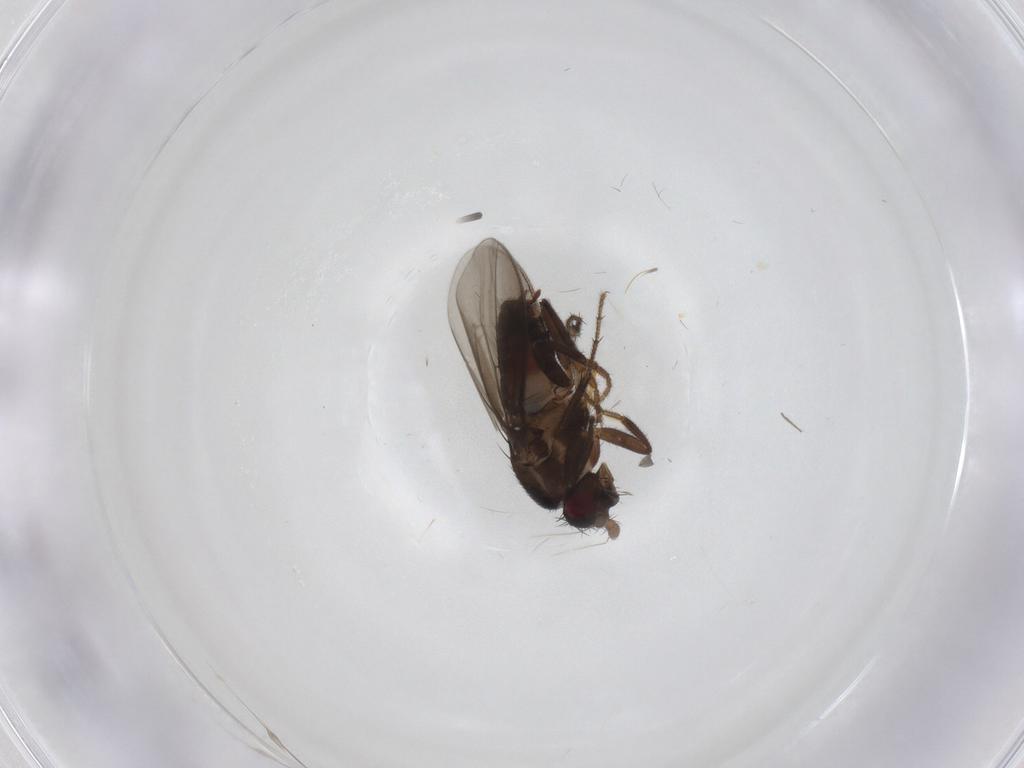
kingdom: Animalia
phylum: Arthropoda
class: Insecta
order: Diptera
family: Sphaeroceridae
